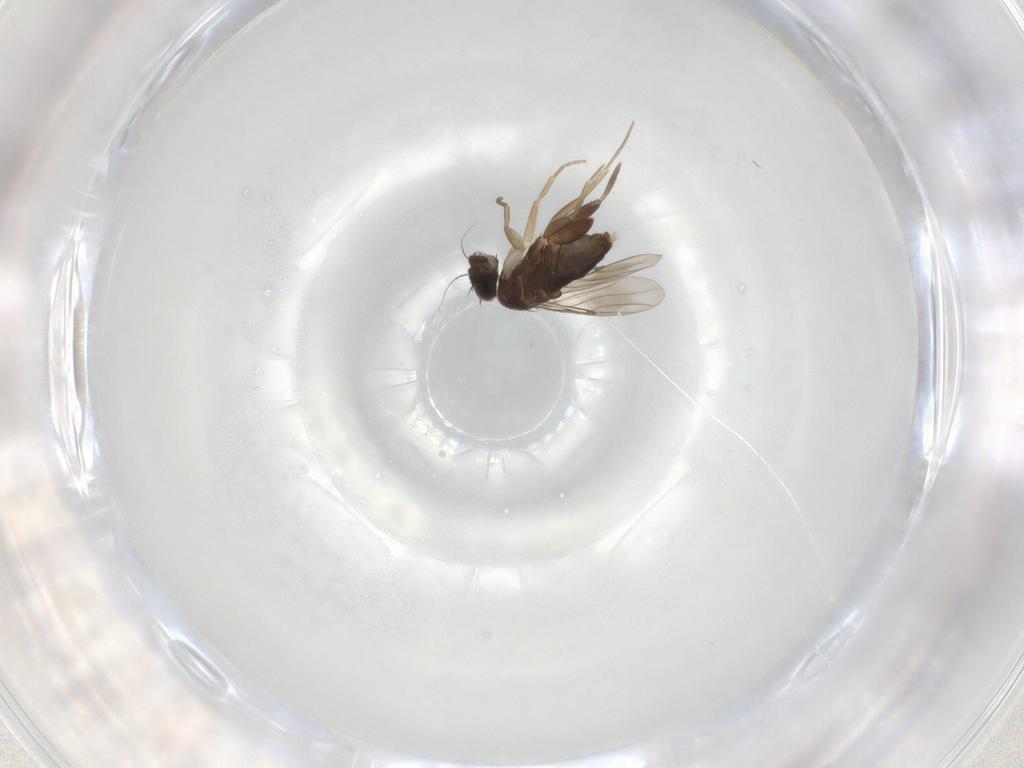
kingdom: Animalia
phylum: Arthropoda
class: Insecta
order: Diptera
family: Phoridae
